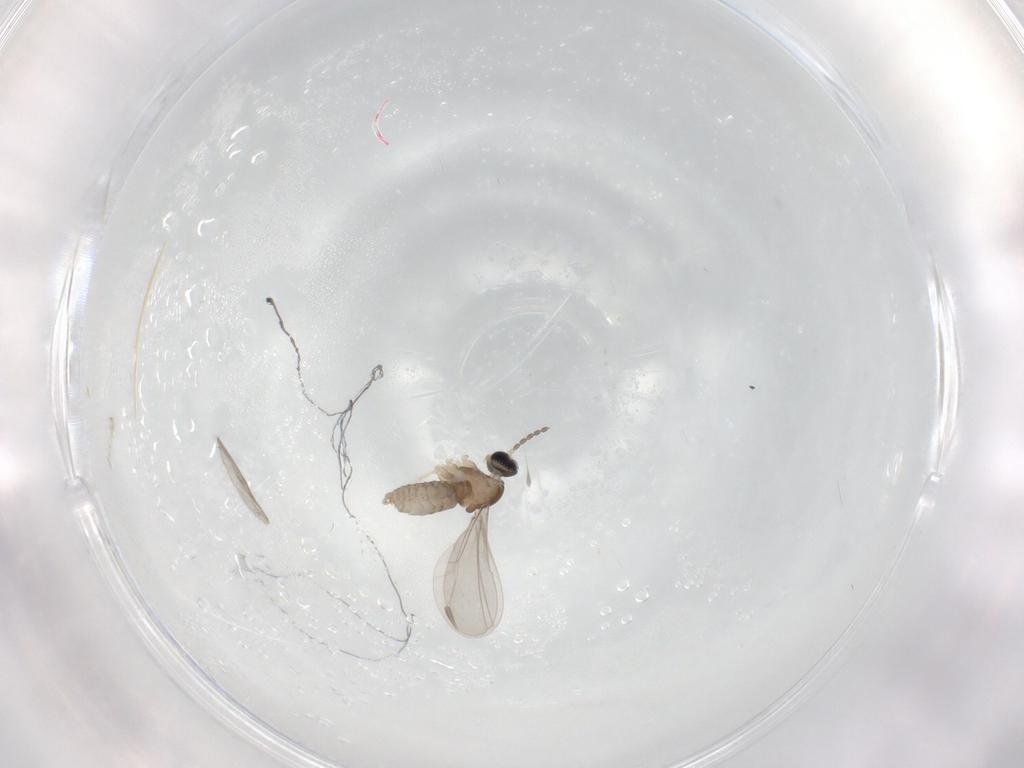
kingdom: Animalia
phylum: Arthropoda
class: Insecta
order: Diptera
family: Cecidomyiidae
